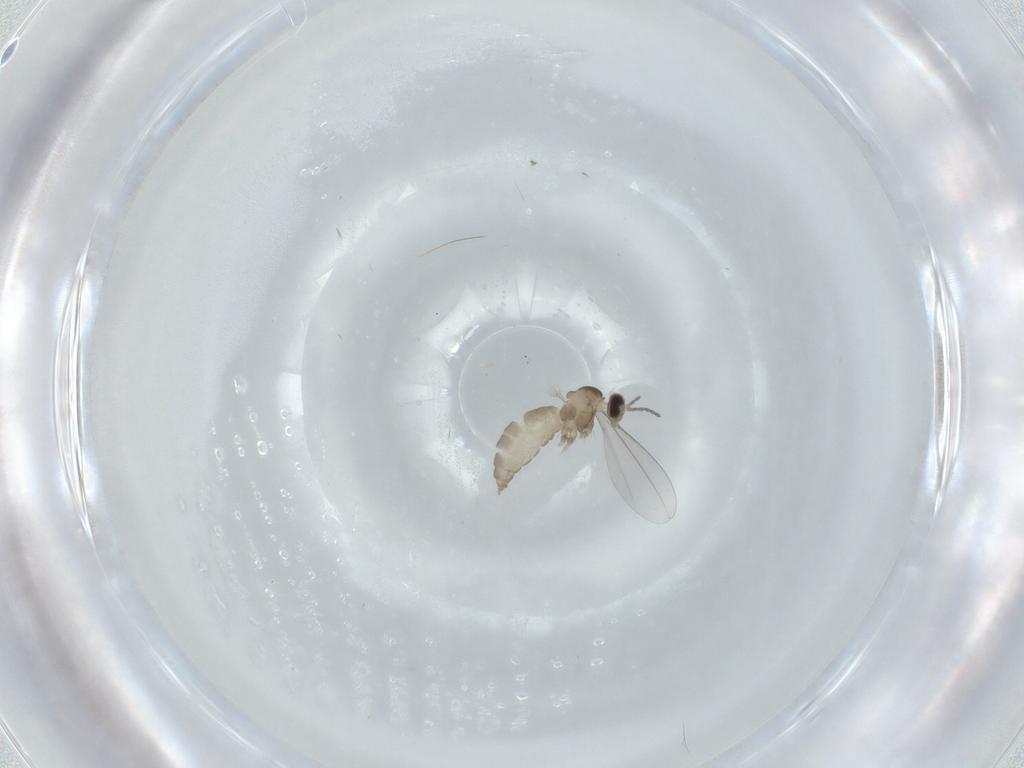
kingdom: Animalia
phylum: Arthropoda
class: Insecta
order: Diptera
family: Cecidomyiidae
